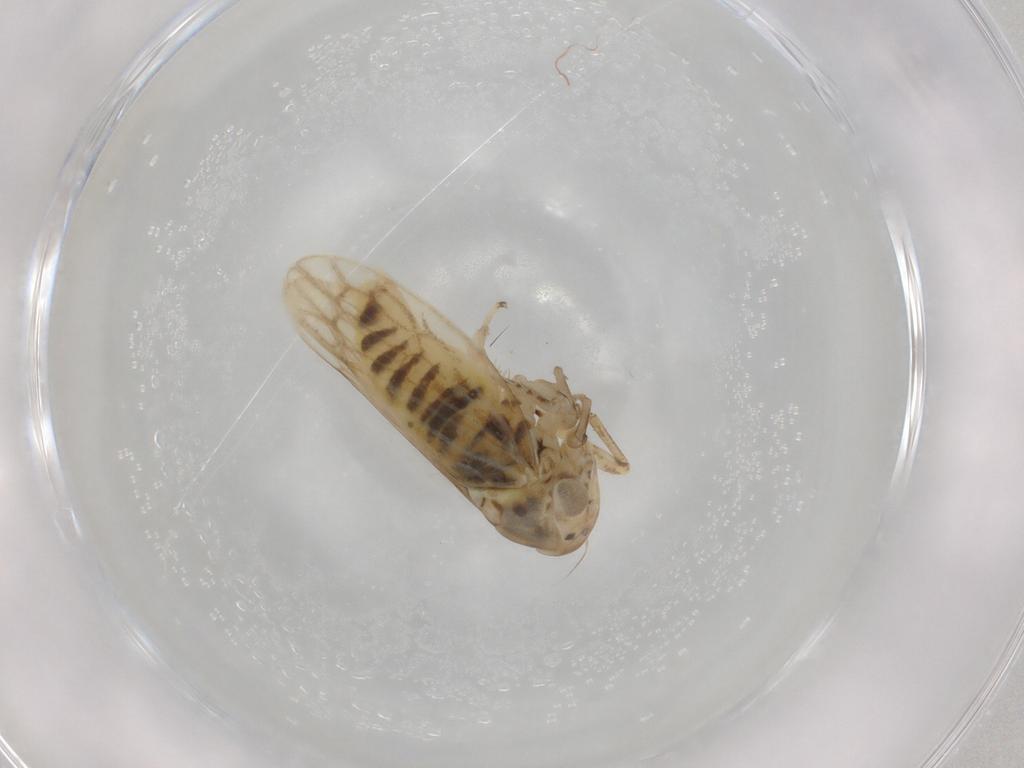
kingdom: Animalia
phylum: Arthropoda
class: Insecta
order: Hemiptera
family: Cicadellidae
